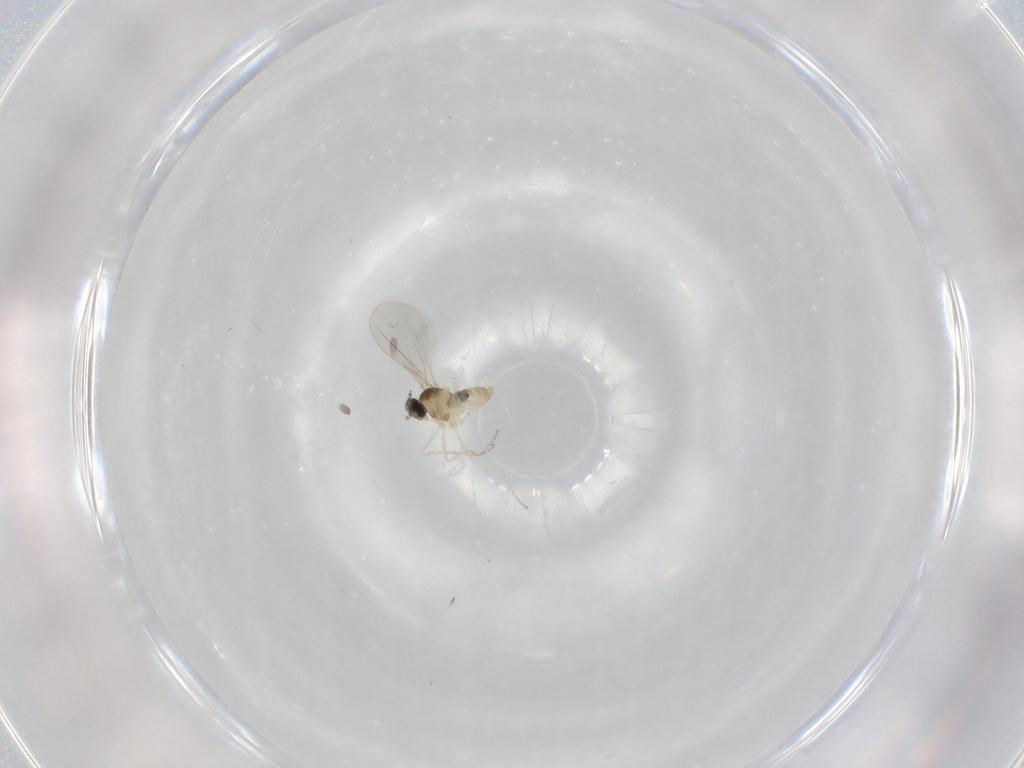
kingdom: Animalia
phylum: Arthropoda
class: Insecta
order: Diptera
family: Cecidomyiidae
